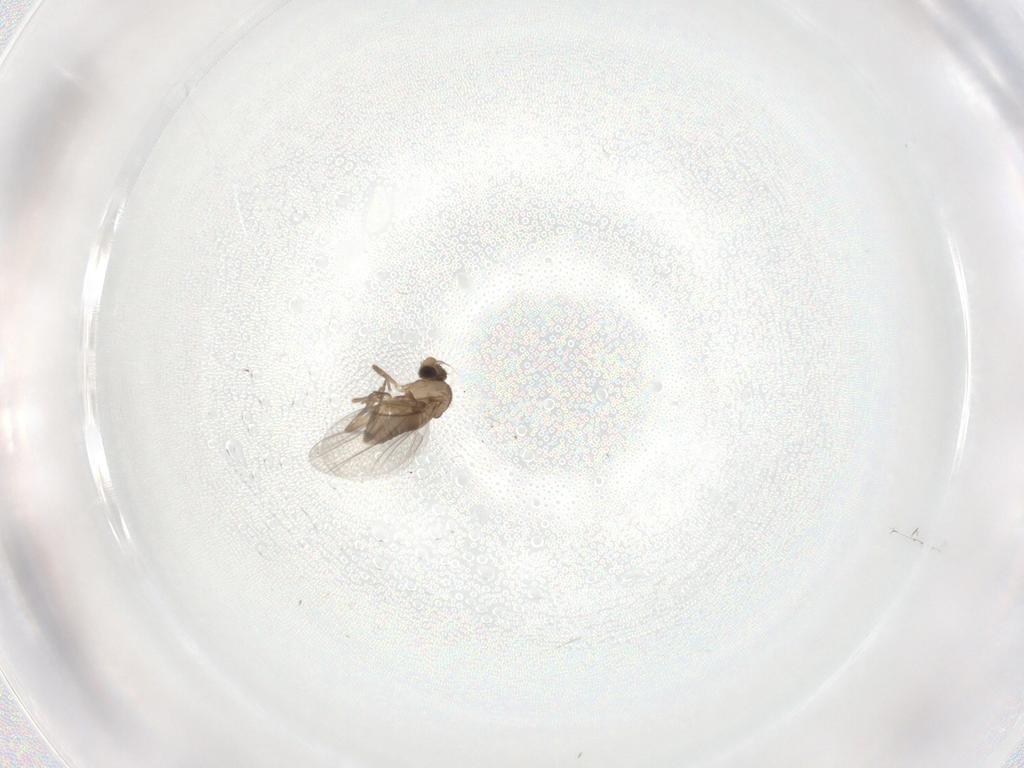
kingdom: Animalia
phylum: Arthropoda
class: Insecta
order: Diptera
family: Limoniidae
